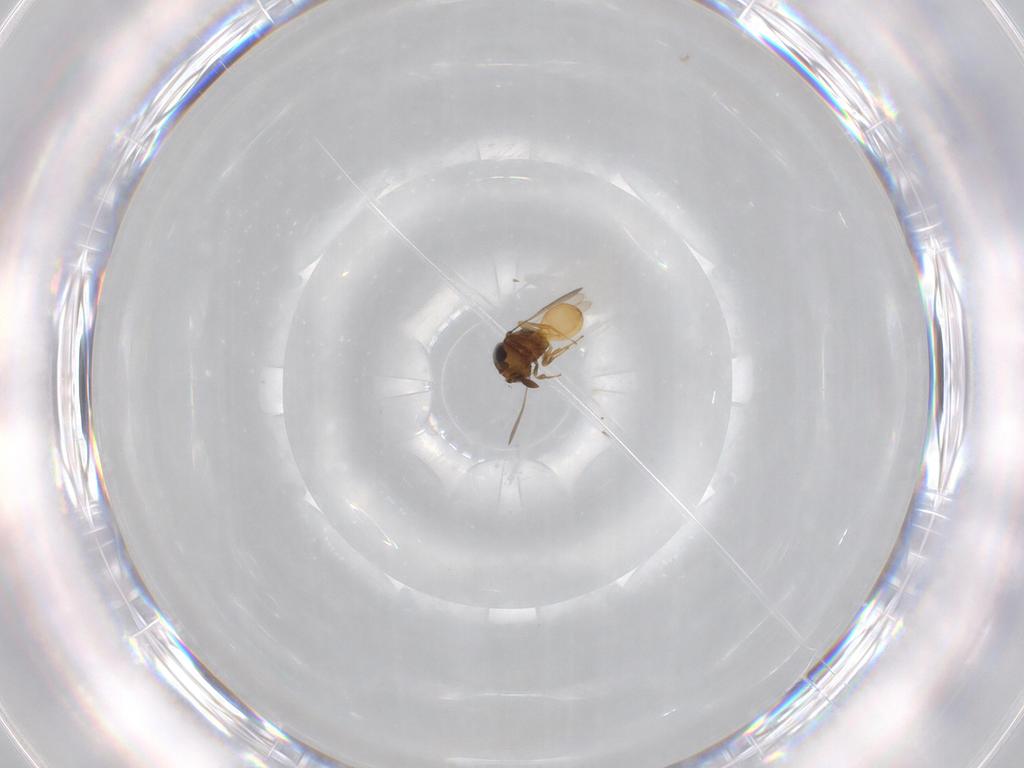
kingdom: Animalia
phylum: Arthropoda
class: Insecta
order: Hymenoptera
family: Scelionidae
